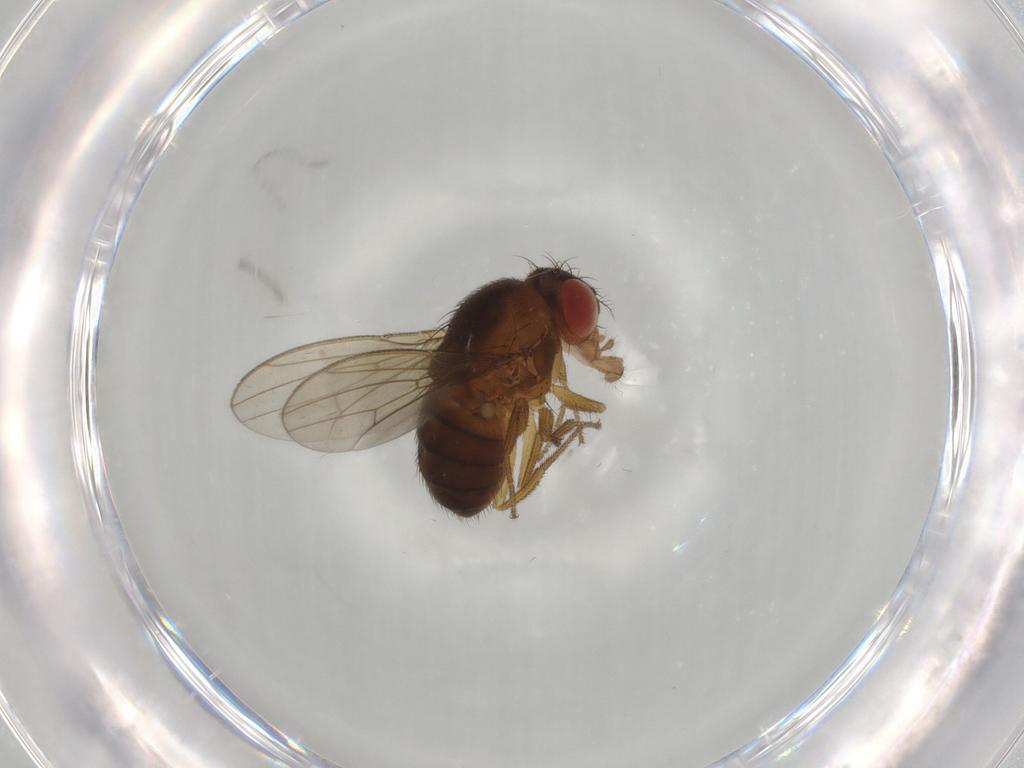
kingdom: Animalia
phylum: Arthropoda
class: Insecta
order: Diptera
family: Drosophilidae
